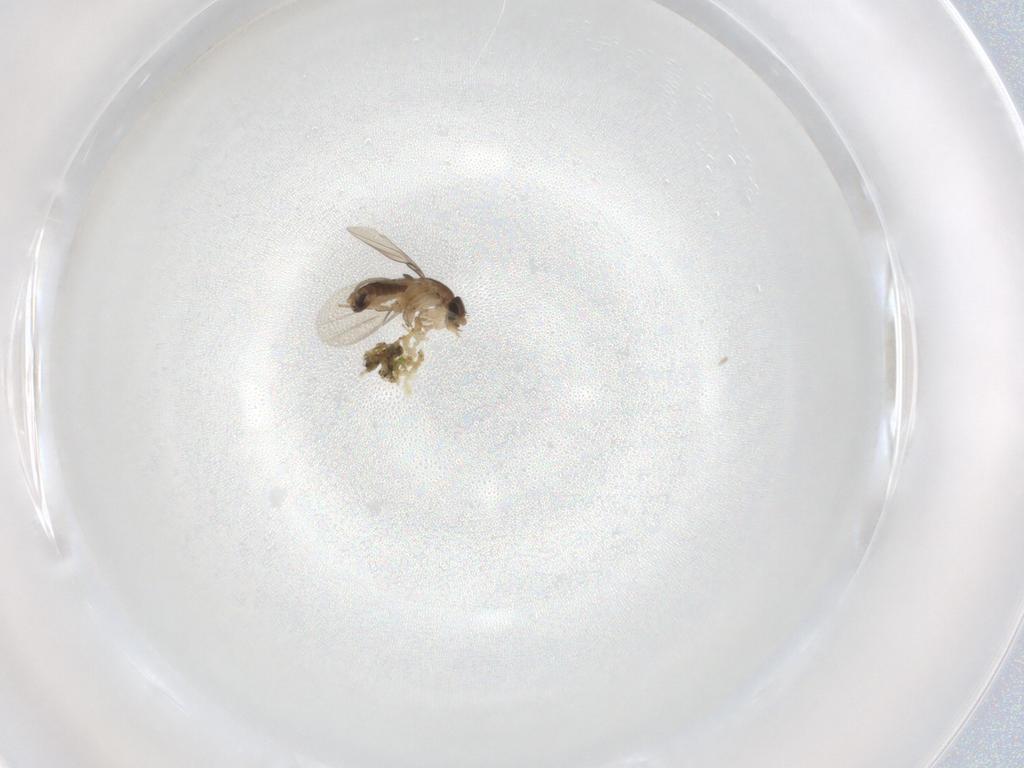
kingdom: Animalia
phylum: Arthropoda
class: Insecta
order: Diptera
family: Phoridae
